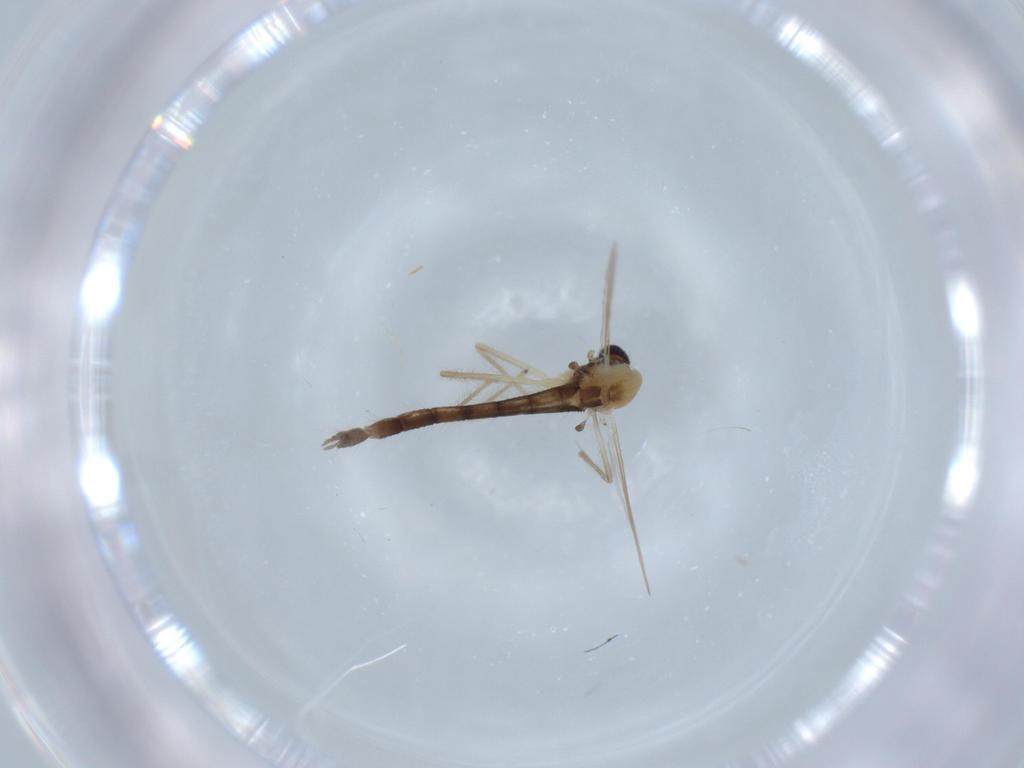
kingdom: Animalia
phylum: Arthropoda
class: Insecta
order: Diptera
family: Chironomidae
